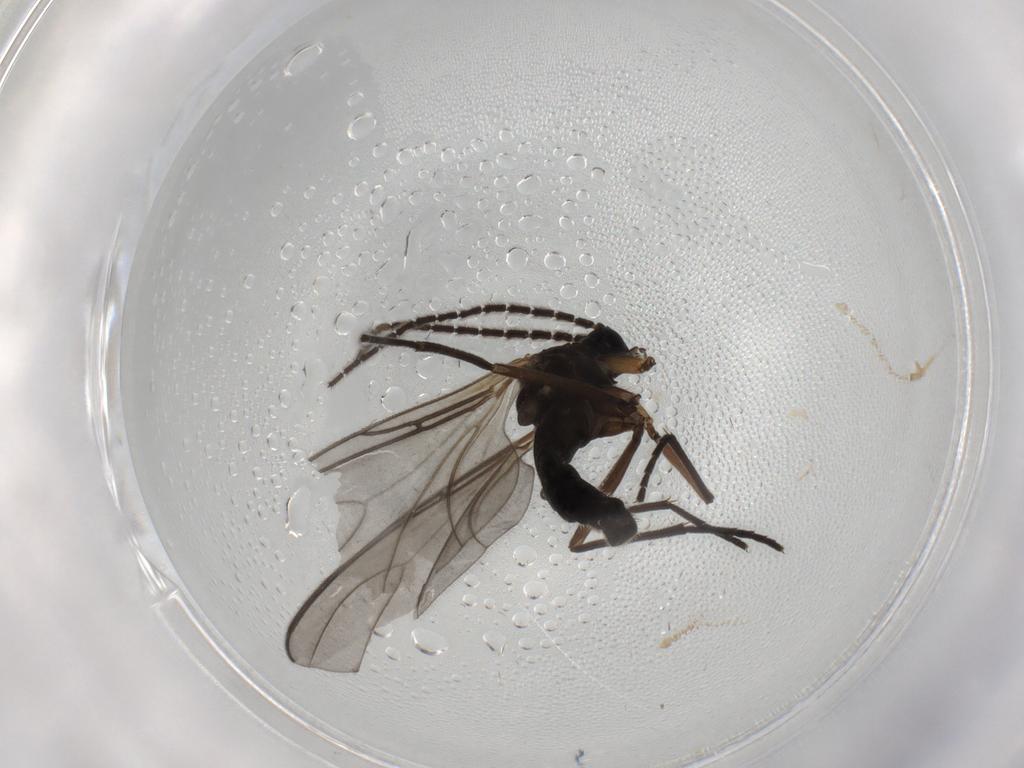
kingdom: Animalia
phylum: Arthropoda
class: Insecta
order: Diptera
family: Sciaridae
